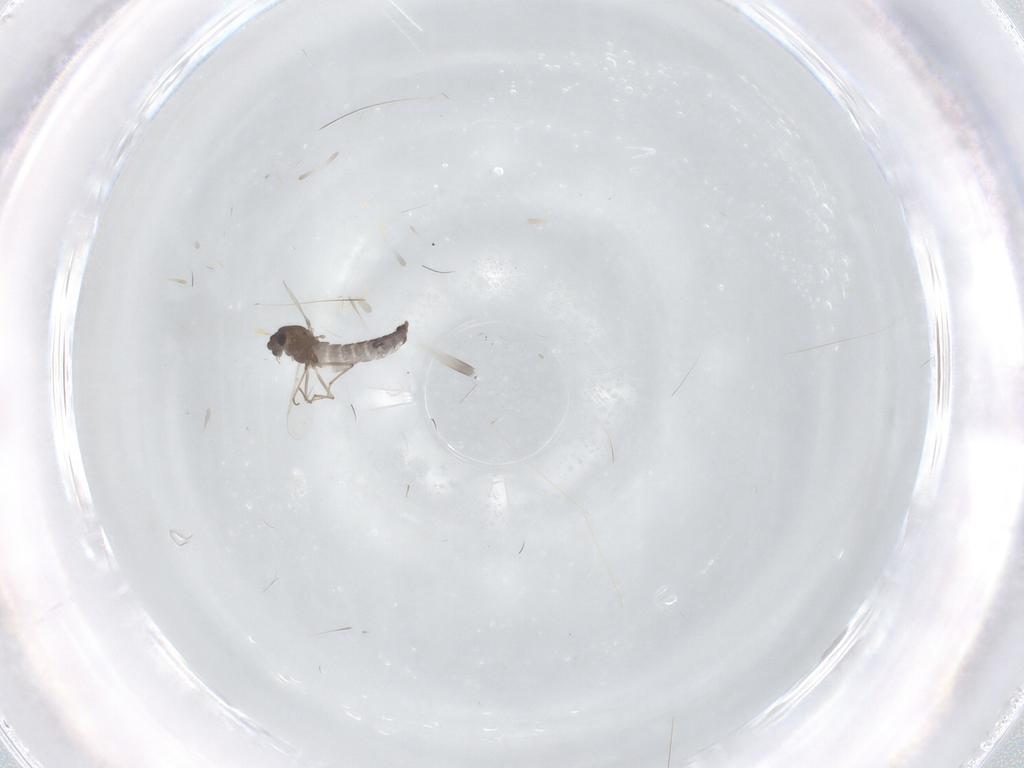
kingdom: Animalia
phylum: Arthropoda
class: Insecta
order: Diptera
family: Chironomidae
